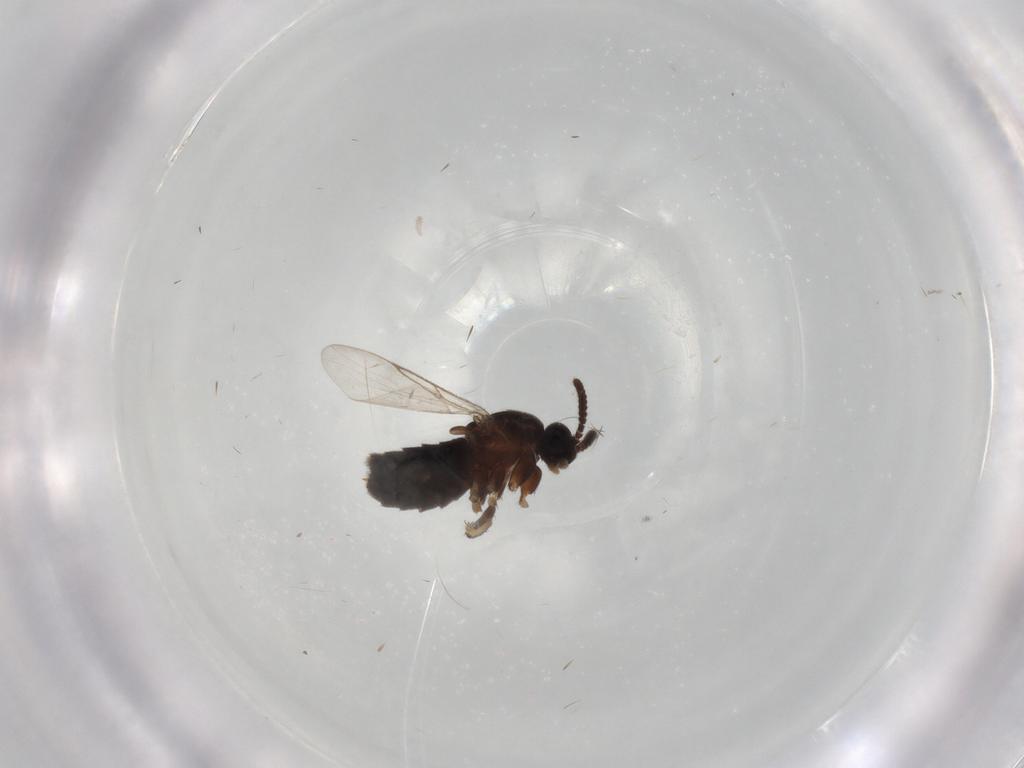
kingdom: Animalia
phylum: Arthropoda
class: Insecta
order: Diptera
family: Scatopsidae
